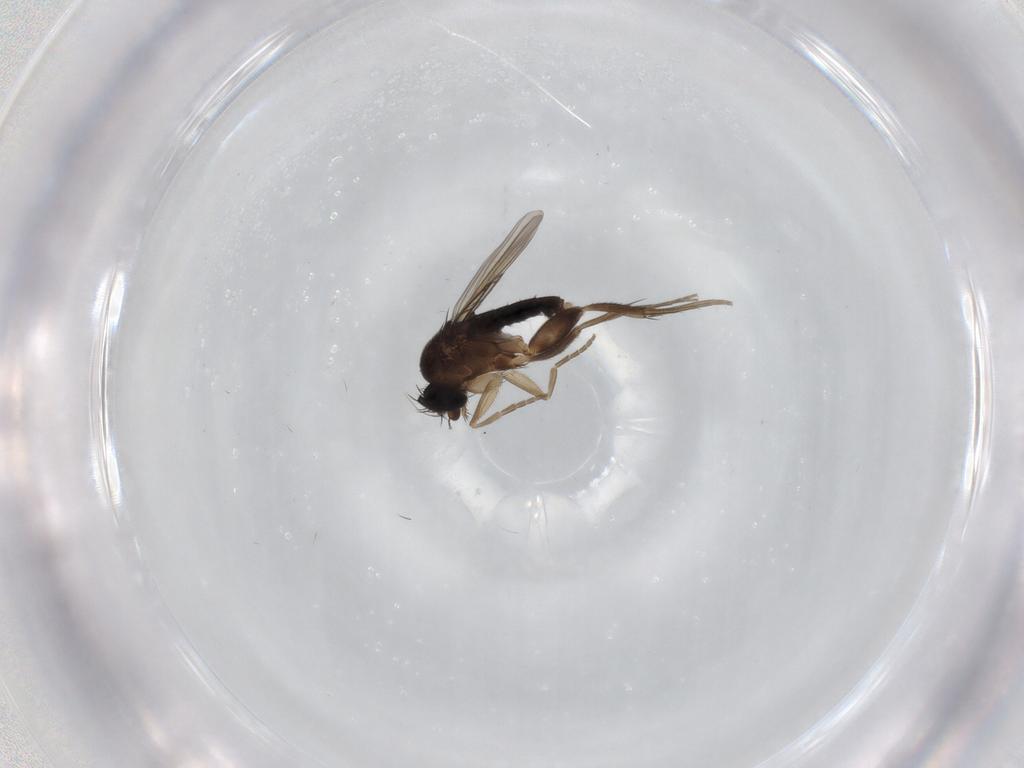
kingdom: Animalia
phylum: Arthropoda
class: Insecta
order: Diptera
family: Phoridae
